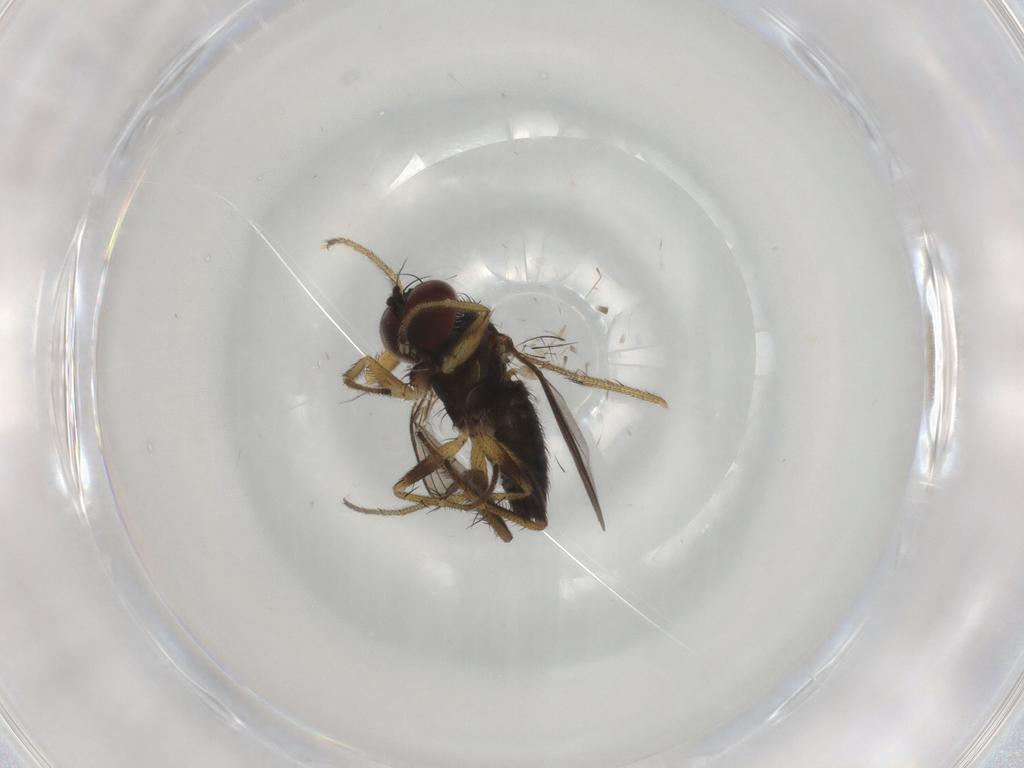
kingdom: Animalia
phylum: Arthropoda
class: Insecta
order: Diptera
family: Dolichopodidae
